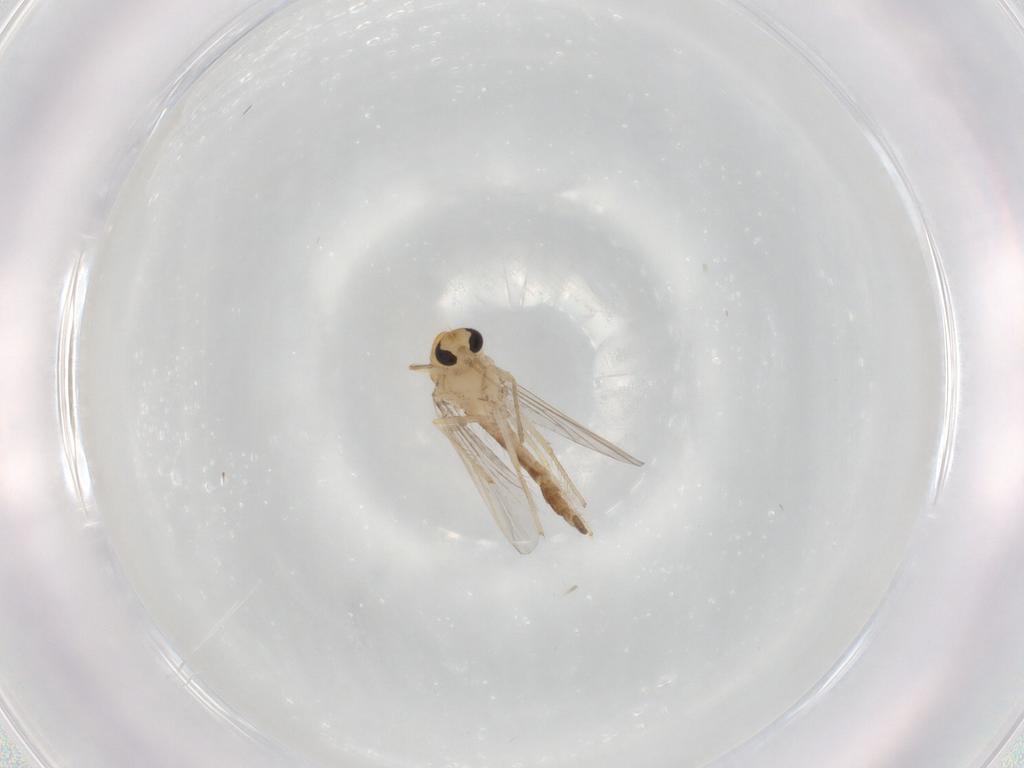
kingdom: Animalia
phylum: Arthropoda
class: Insecta
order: Diptera
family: Chironomidae
